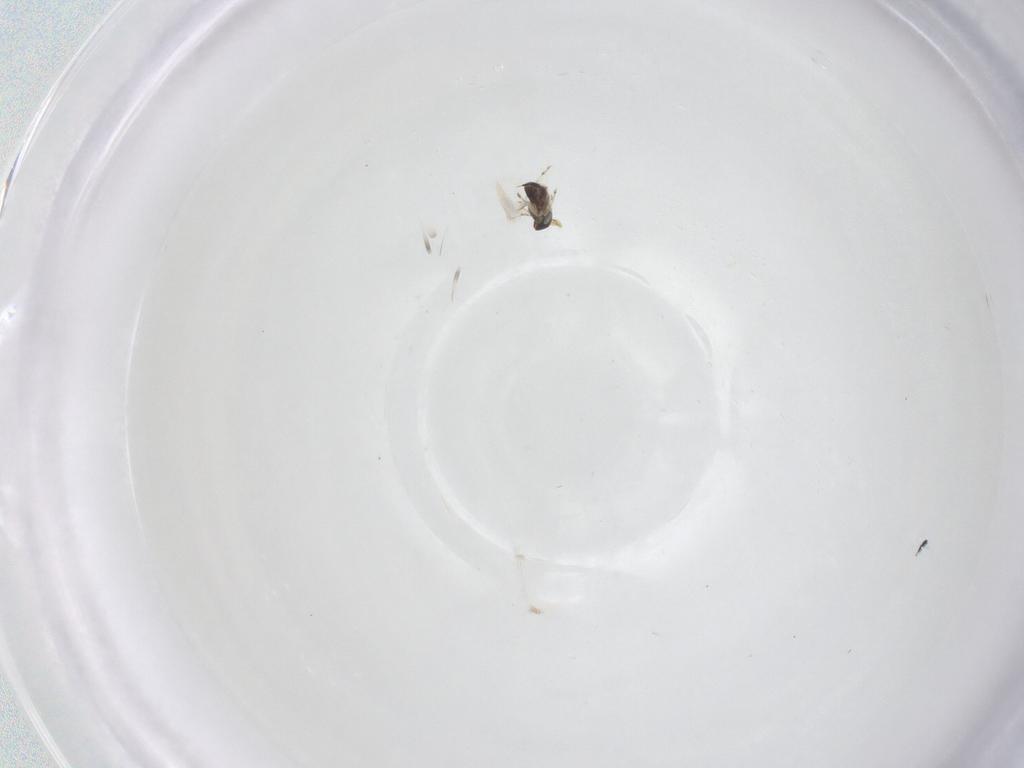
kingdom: Animalia
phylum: Arthropoda
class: Insecta
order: Hymenoptera
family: Mymaridae
